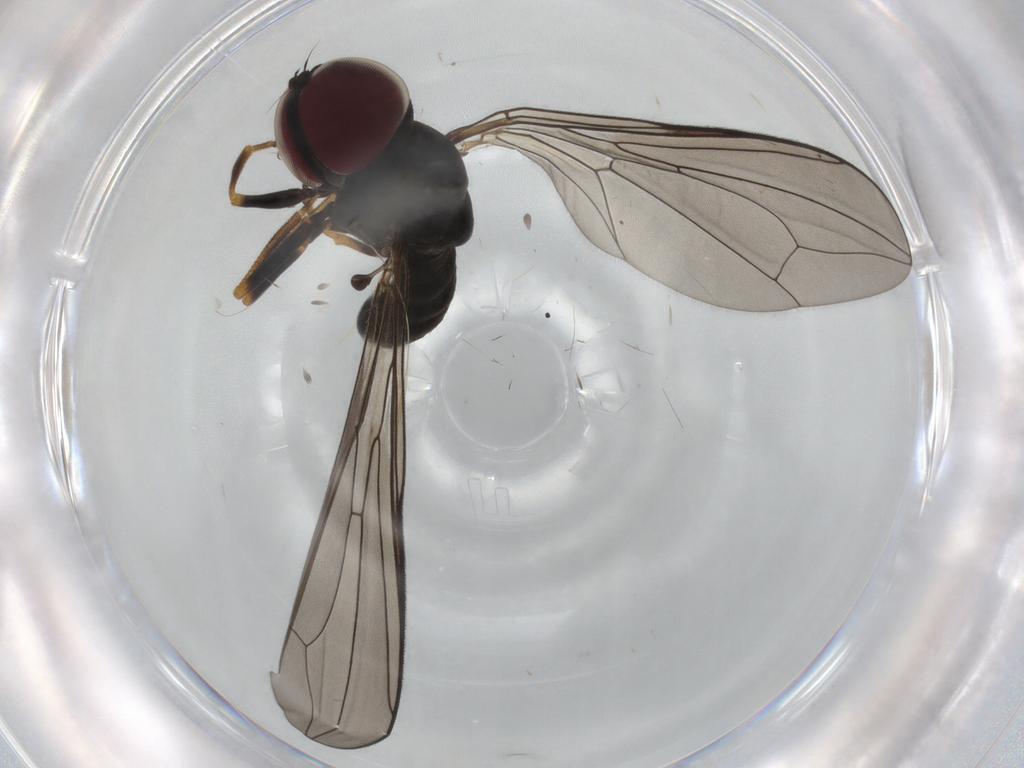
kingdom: Animalia
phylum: Arthropoda
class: Insecta
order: Diptera
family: Pipunculidae
